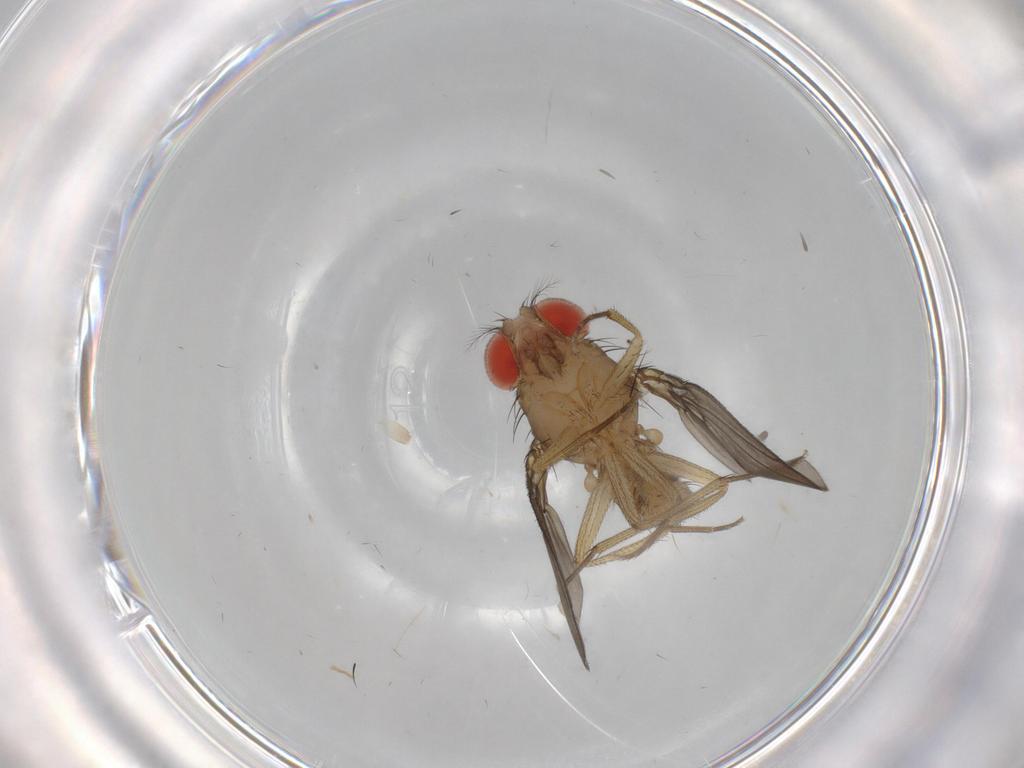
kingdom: Animalia
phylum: Arthropoda
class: Insecta
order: Diptera
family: Drosophilidae
